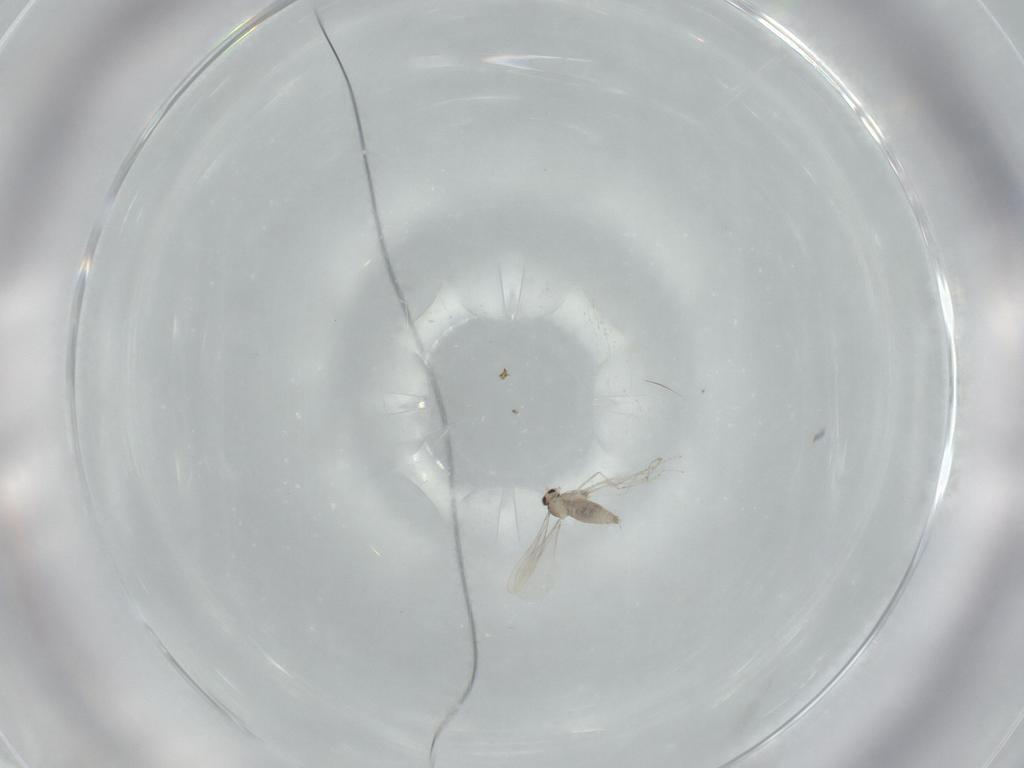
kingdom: Animalia
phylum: Arthropoda
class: Insecta
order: Diptera
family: Cecidomyiidae
